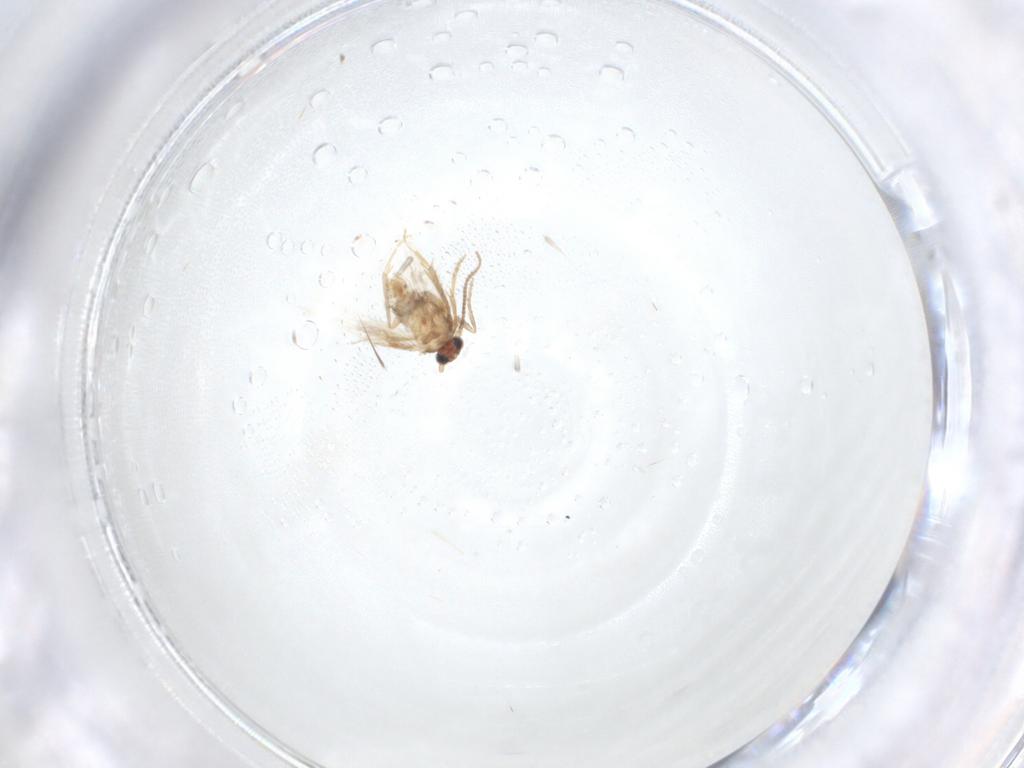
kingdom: Animalia
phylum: Arthropoda
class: Insecta
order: Lepidoptera
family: Nepticulidae
